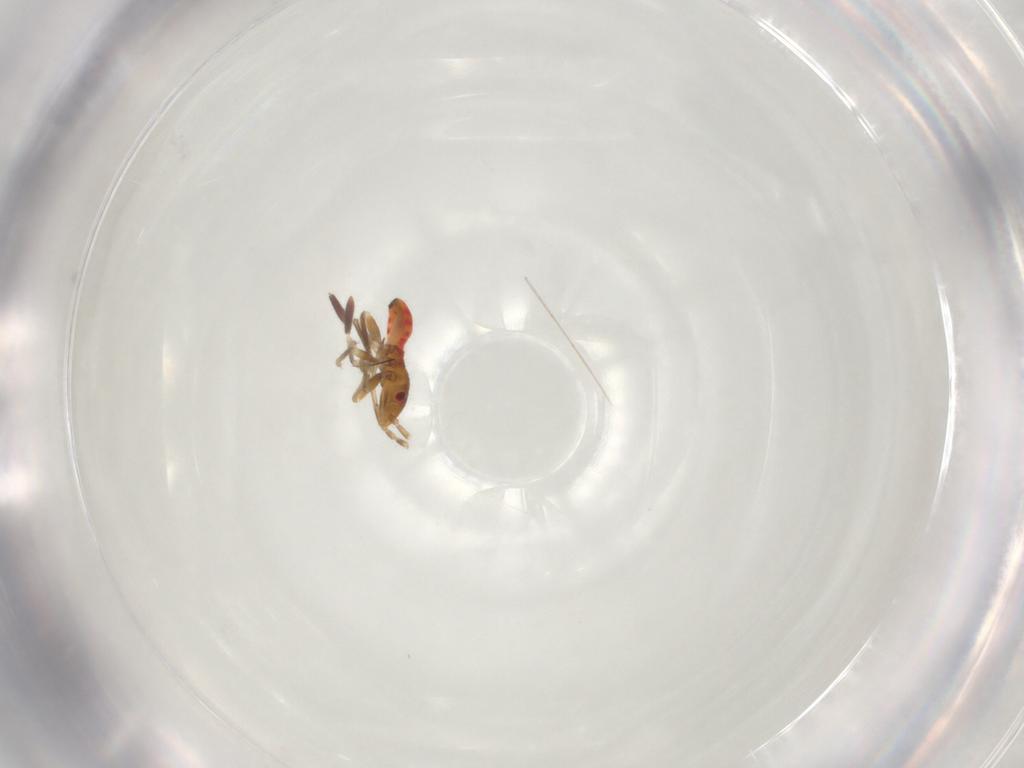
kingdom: Animalia
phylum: Arthropoda
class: Insecta
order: Hemiptera
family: Heterogastridae
